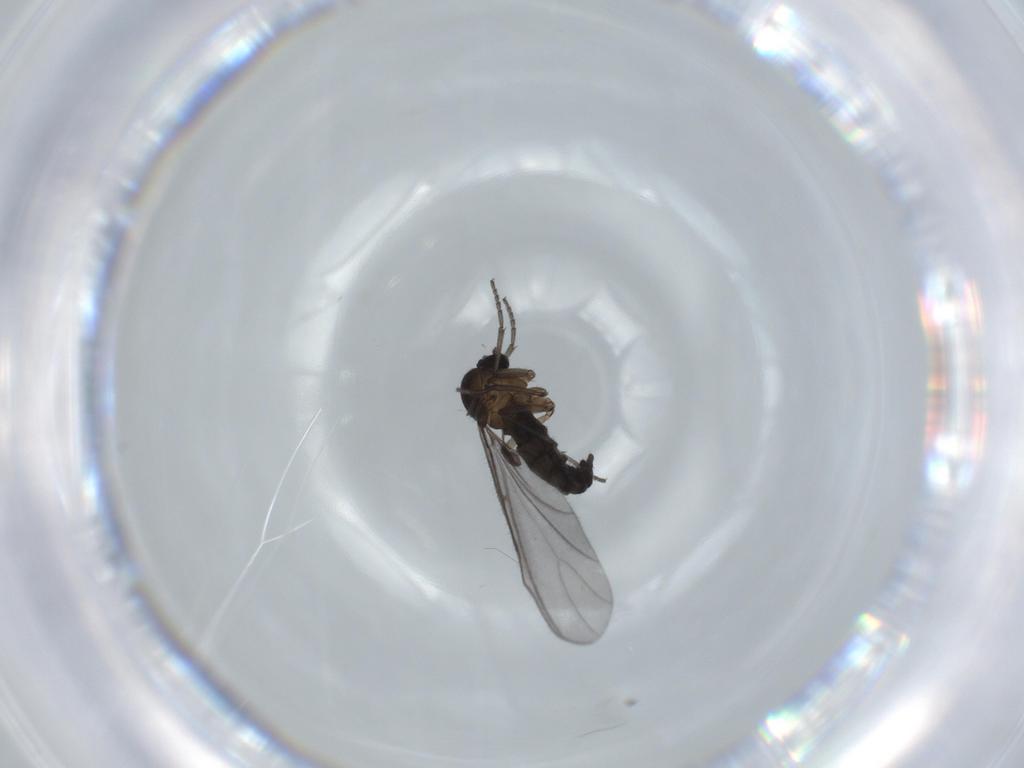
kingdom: Animalia
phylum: Arthropoda
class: Insecta
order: Diptera
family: Sciaridae
